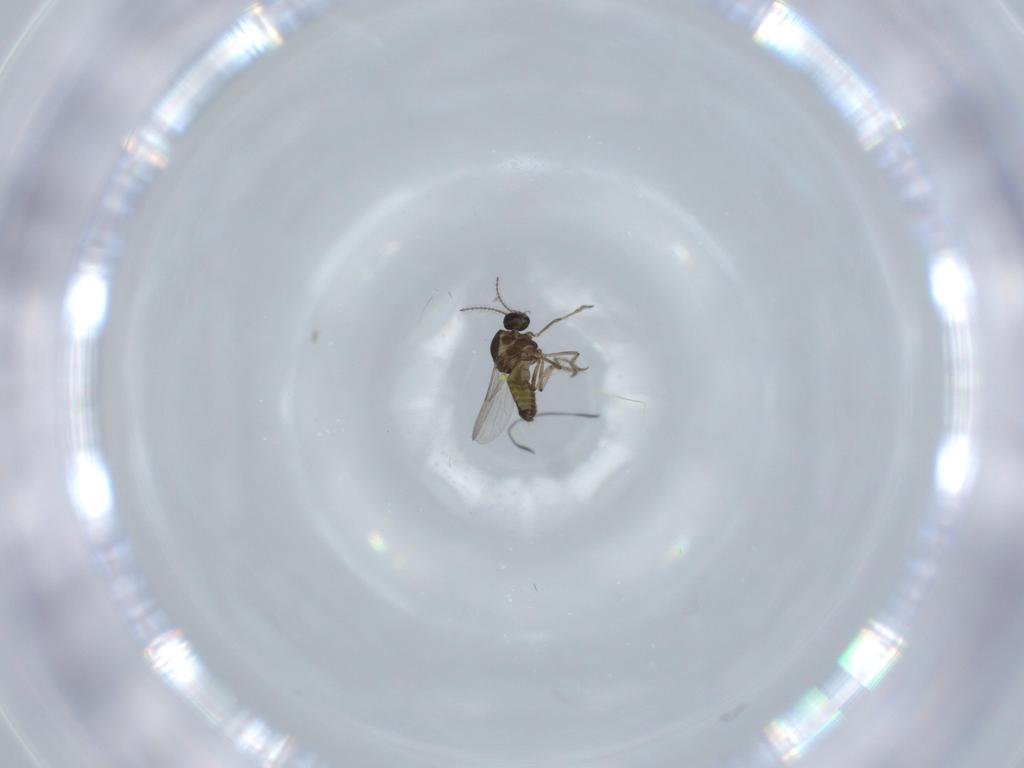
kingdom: Animalia
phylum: Arthropoda
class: Insecta
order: Diptera
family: Ceratopogonidae
